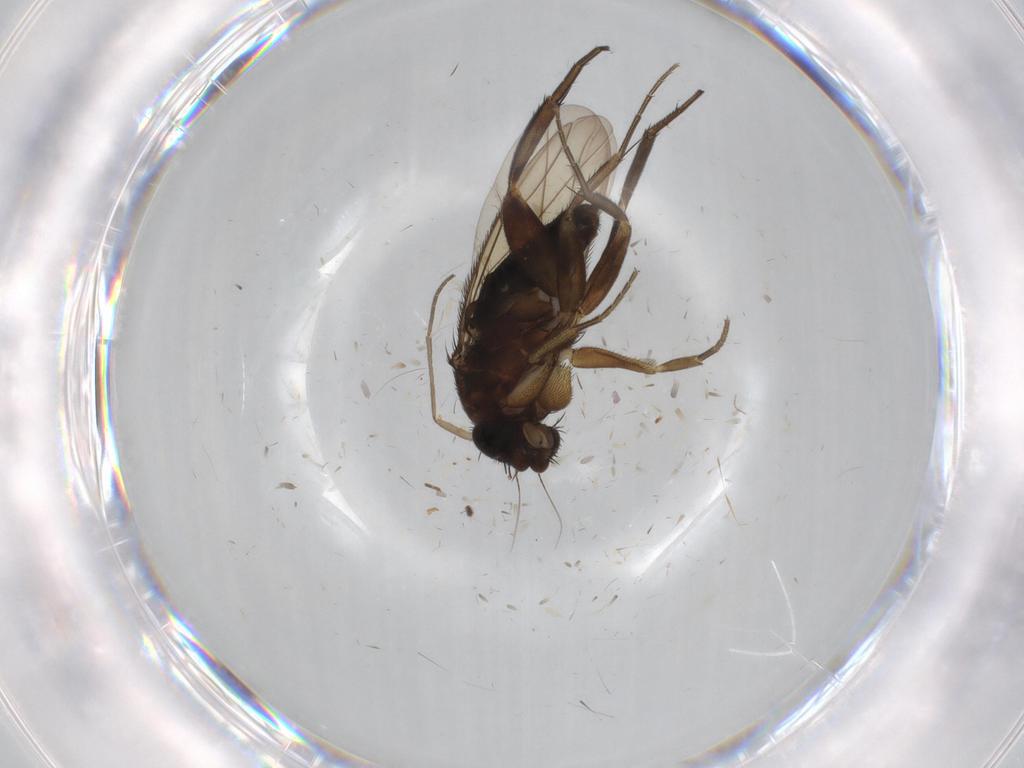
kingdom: Animalia
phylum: Arthropoda
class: Insecta
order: Diptera
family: Phoridae
